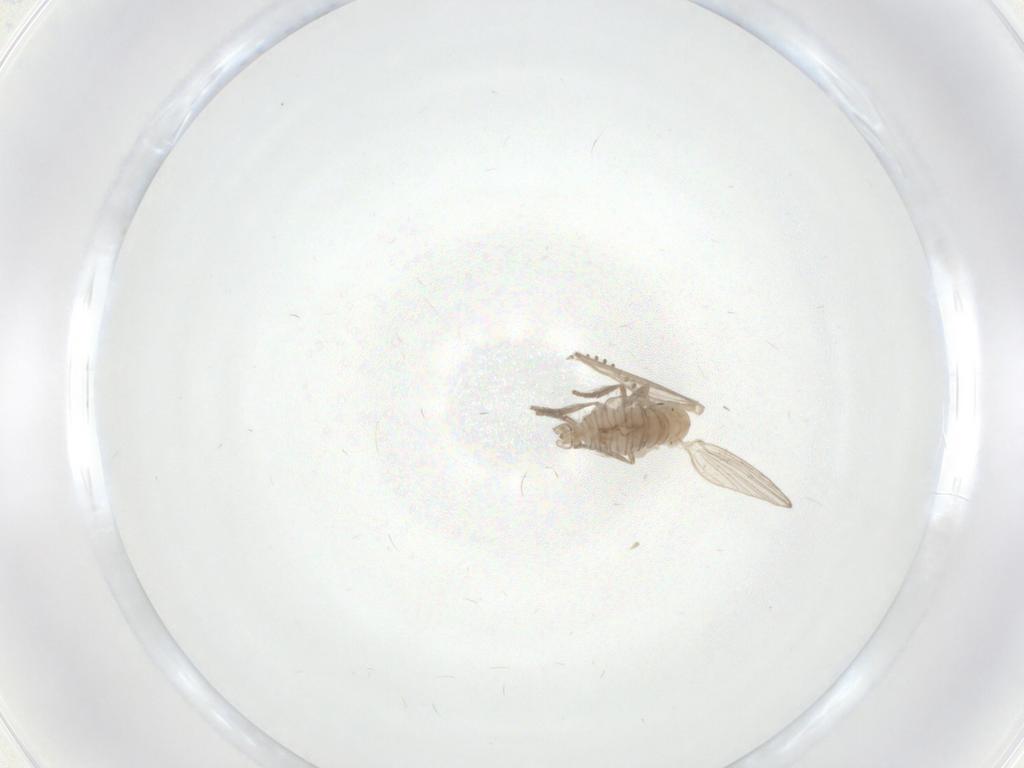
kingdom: Animalia
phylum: Arthropoda
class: Insecta
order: Diptera
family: Psychodidae
